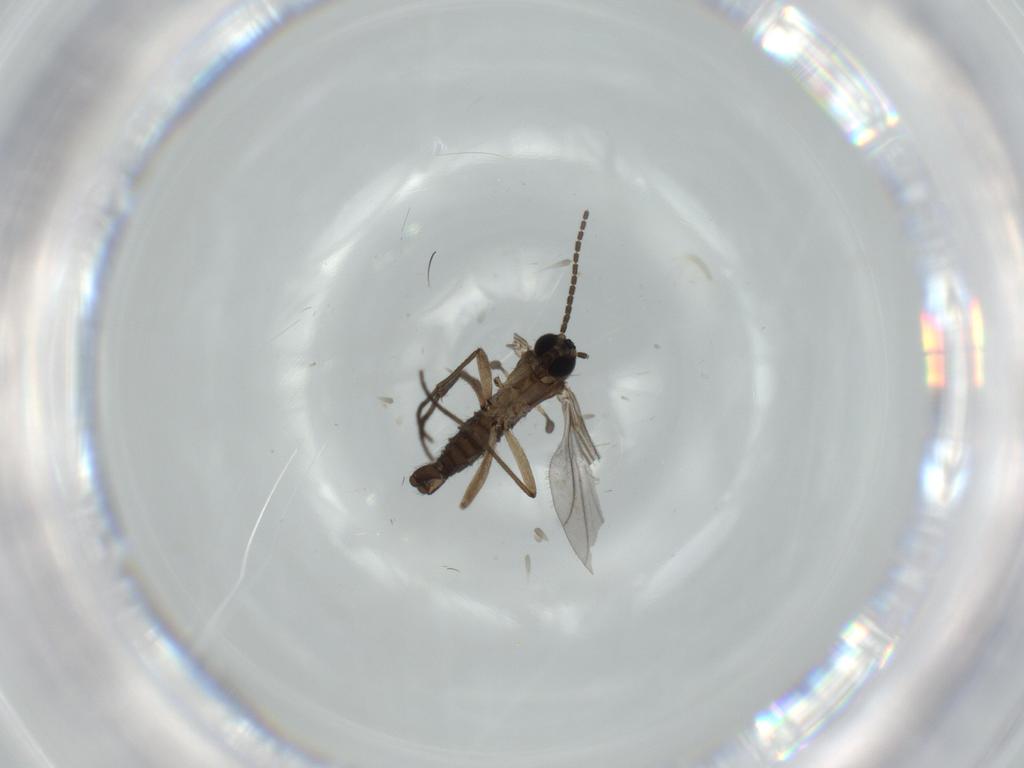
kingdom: Animalia
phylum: Arthropoda
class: Insecta
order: Diptera
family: Sciaridae
